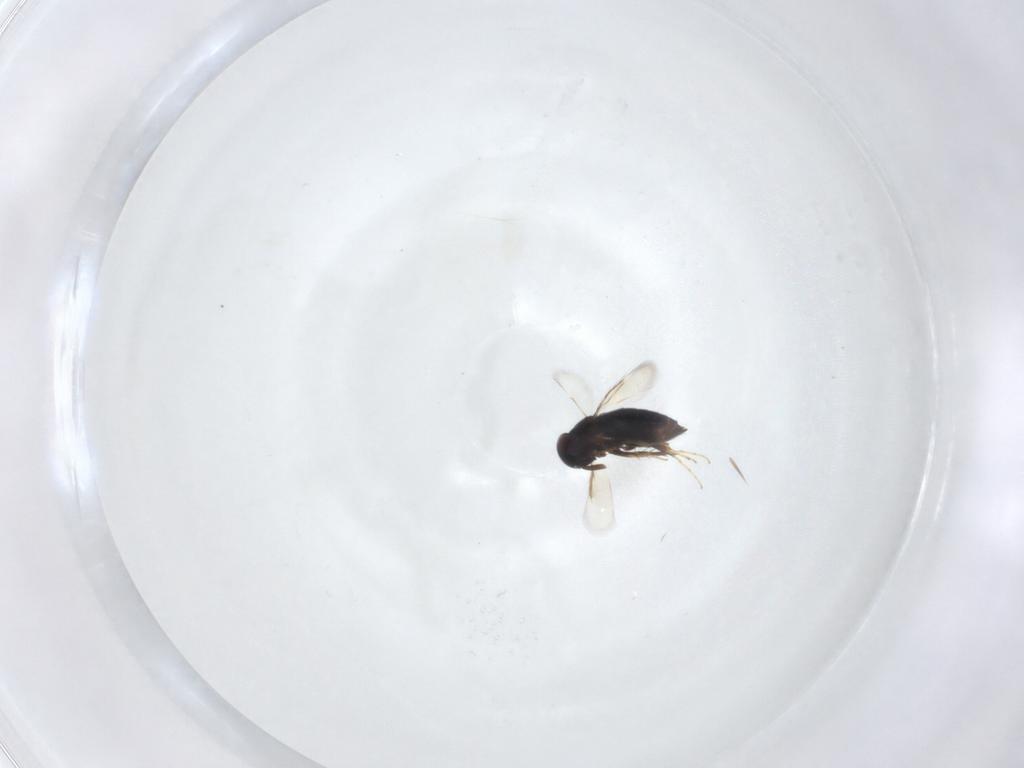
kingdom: Animalia
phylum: Arthropoda
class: Insecta
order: Hymenoptera
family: Signiphoridae
